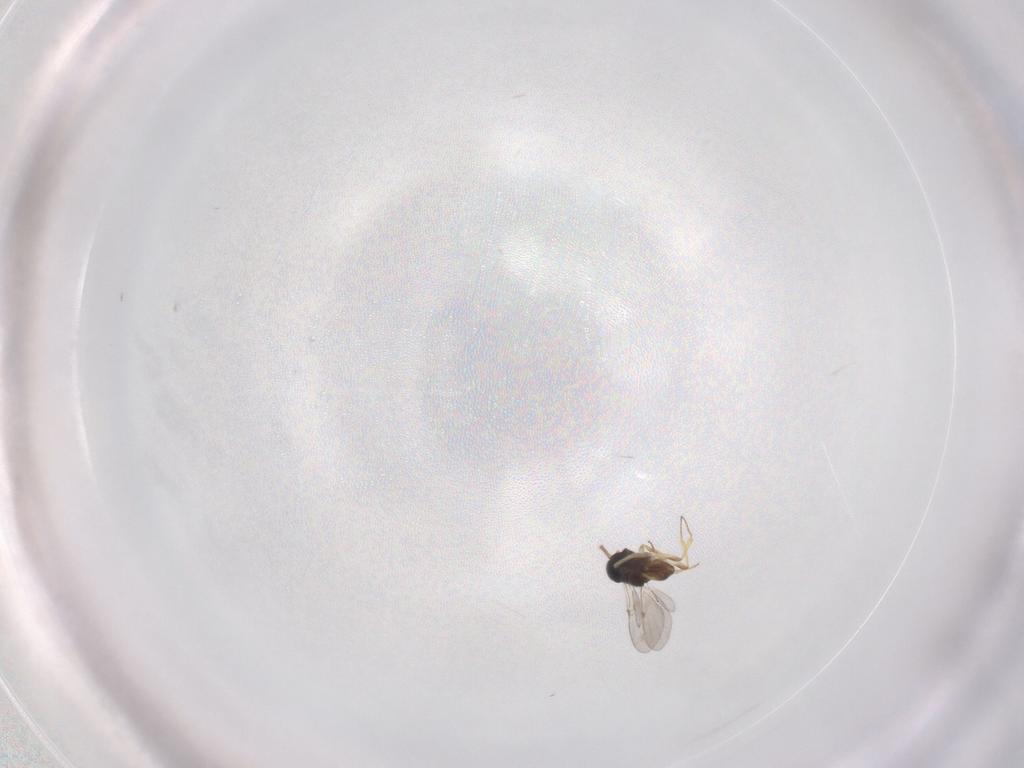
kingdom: Animalia
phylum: Arthropoda
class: Insecta
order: Hymenoptera
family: Encyrtidae
